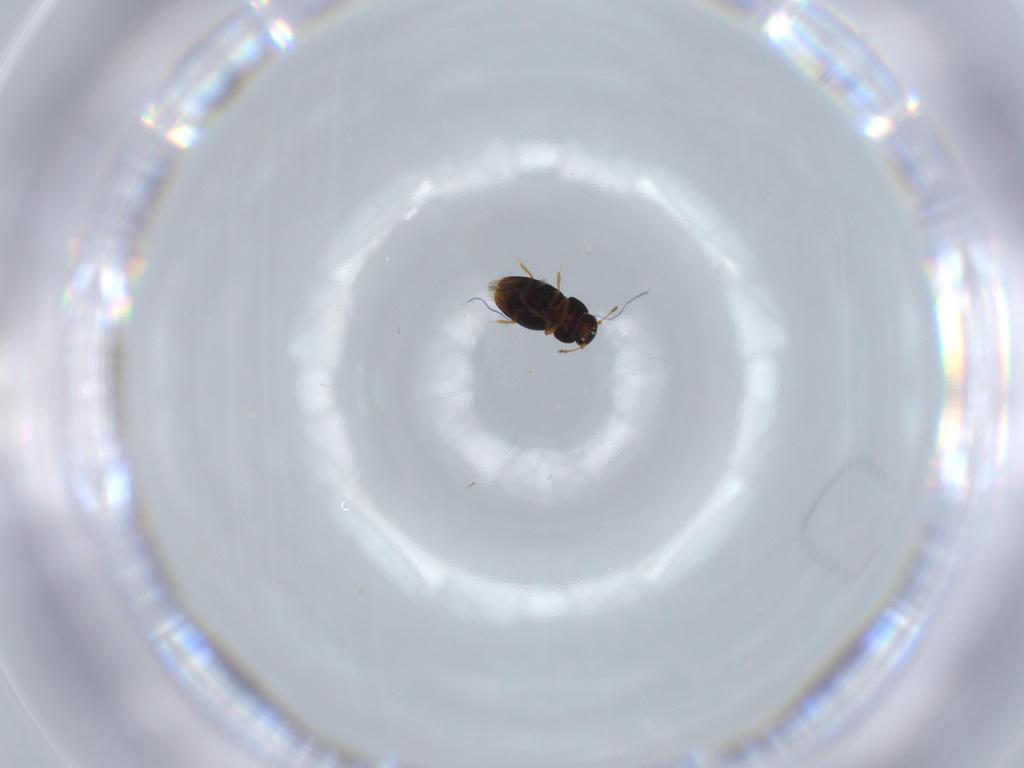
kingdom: Animalia
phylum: Arthropoda
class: Insecta
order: Coleoptera
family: Ptiliidae
